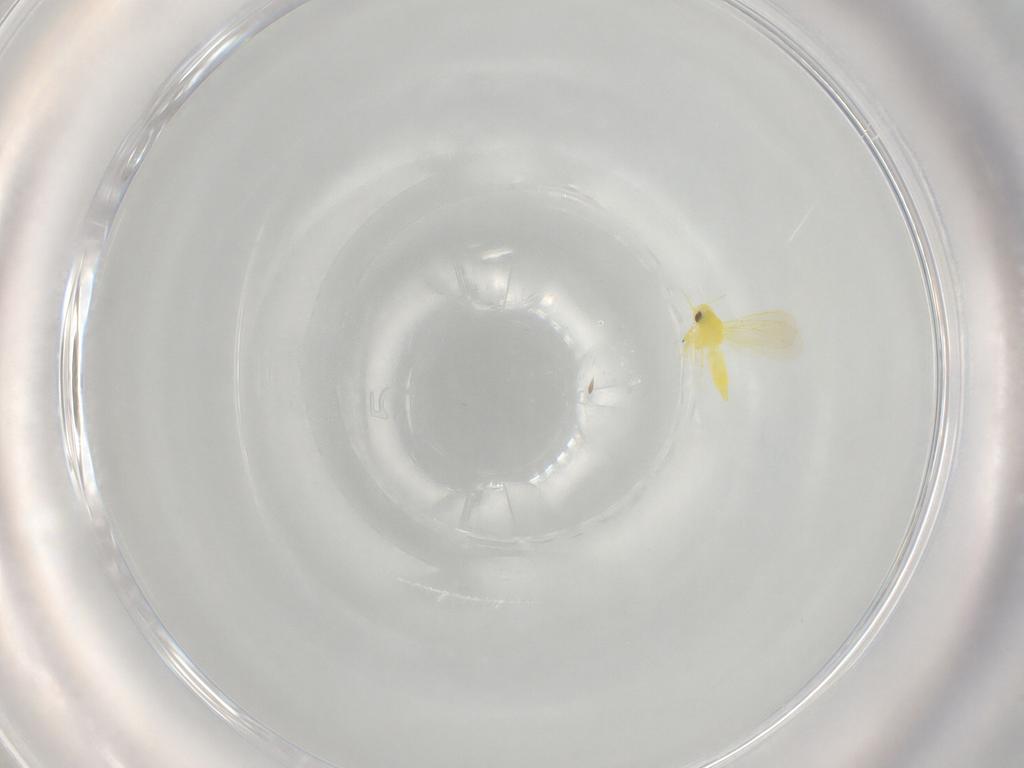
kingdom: Animalia
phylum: Arthropoda
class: Insecta
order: Hemiptera
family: Aleyrodidae
